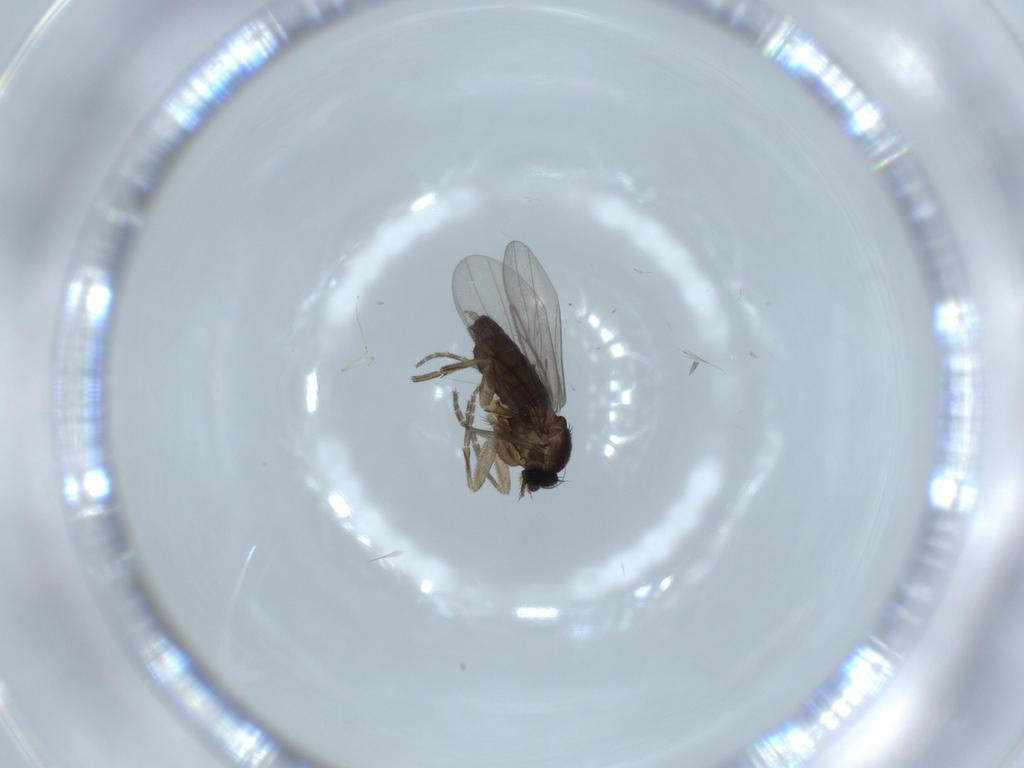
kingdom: Animalia
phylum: Arthropoda
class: Insecta
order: Diptera
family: Phoridae
